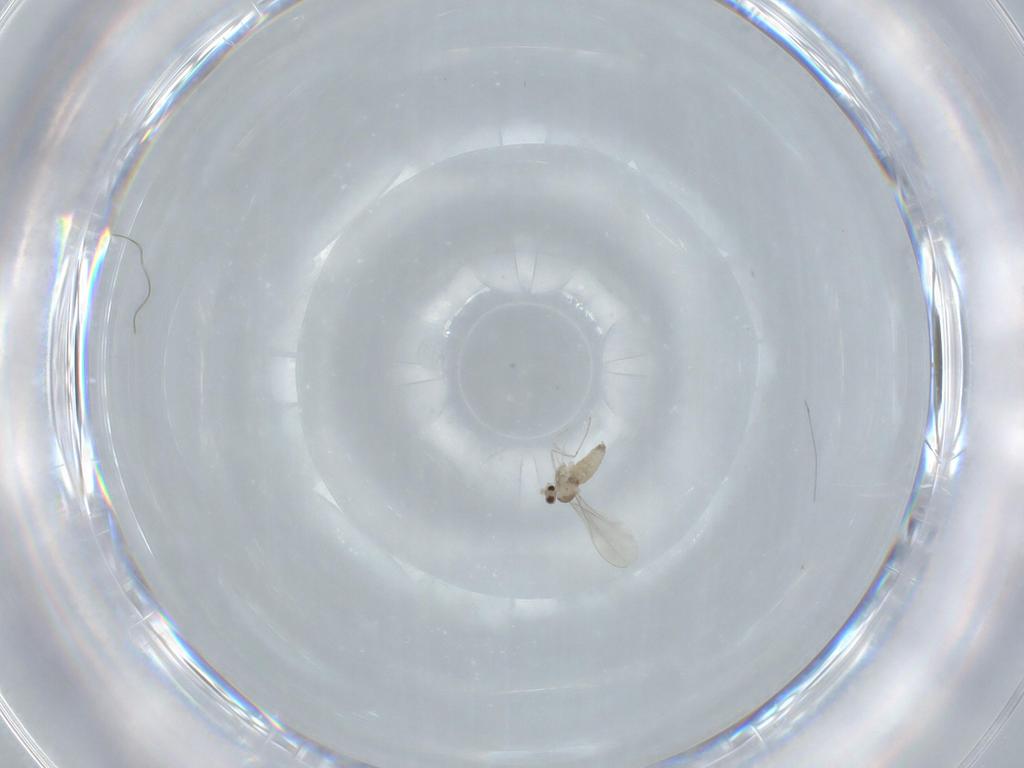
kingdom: Animalia
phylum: Arthropoda
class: Insecta
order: Diptera
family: Cecidomyiidae
